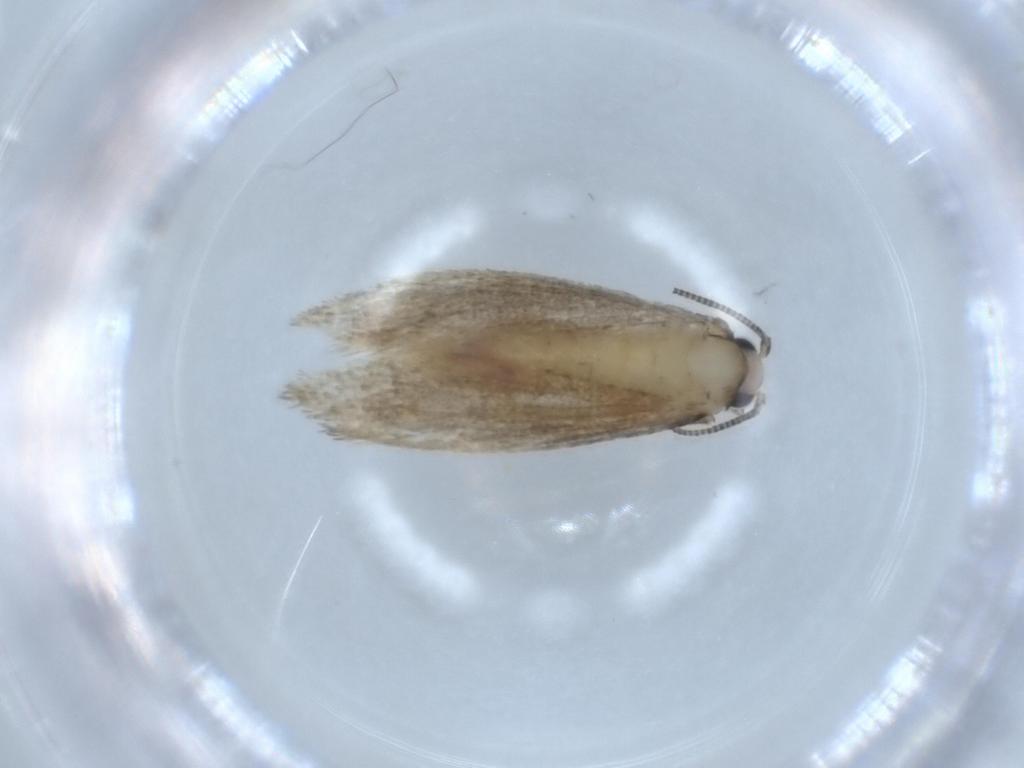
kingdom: Animalia
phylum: Arthropoda
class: Insecta
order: Lepidoptera
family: Tineidae
